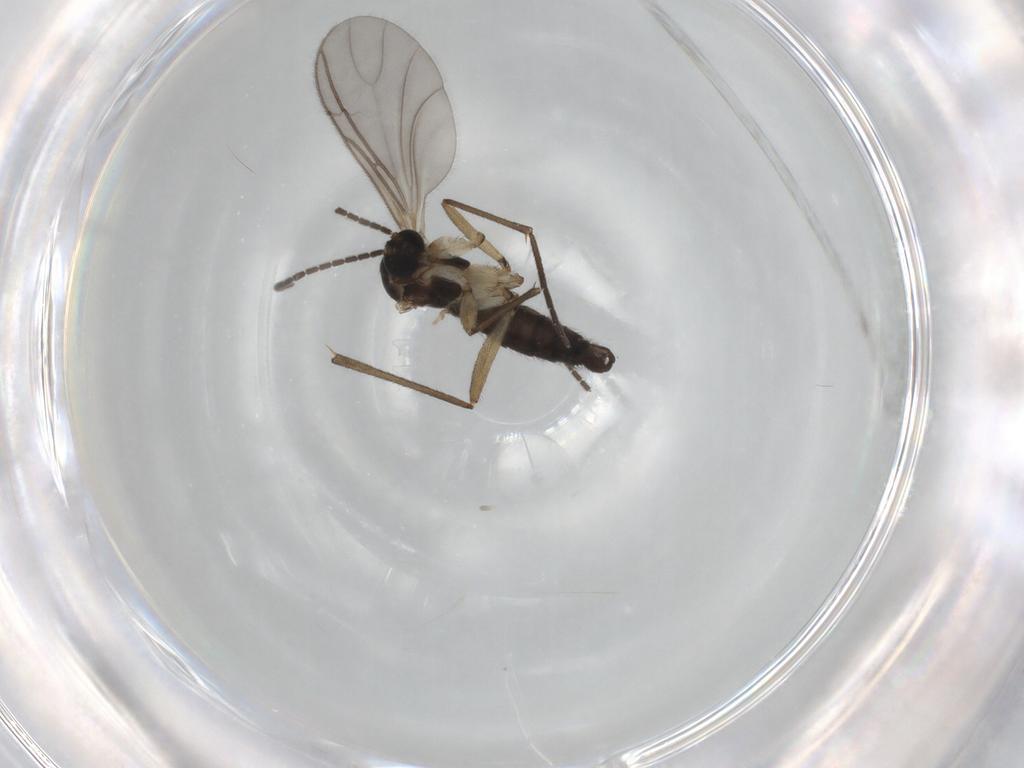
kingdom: Animalia
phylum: Arthropoda
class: Insecta
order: Diptera
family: Sciaridae
